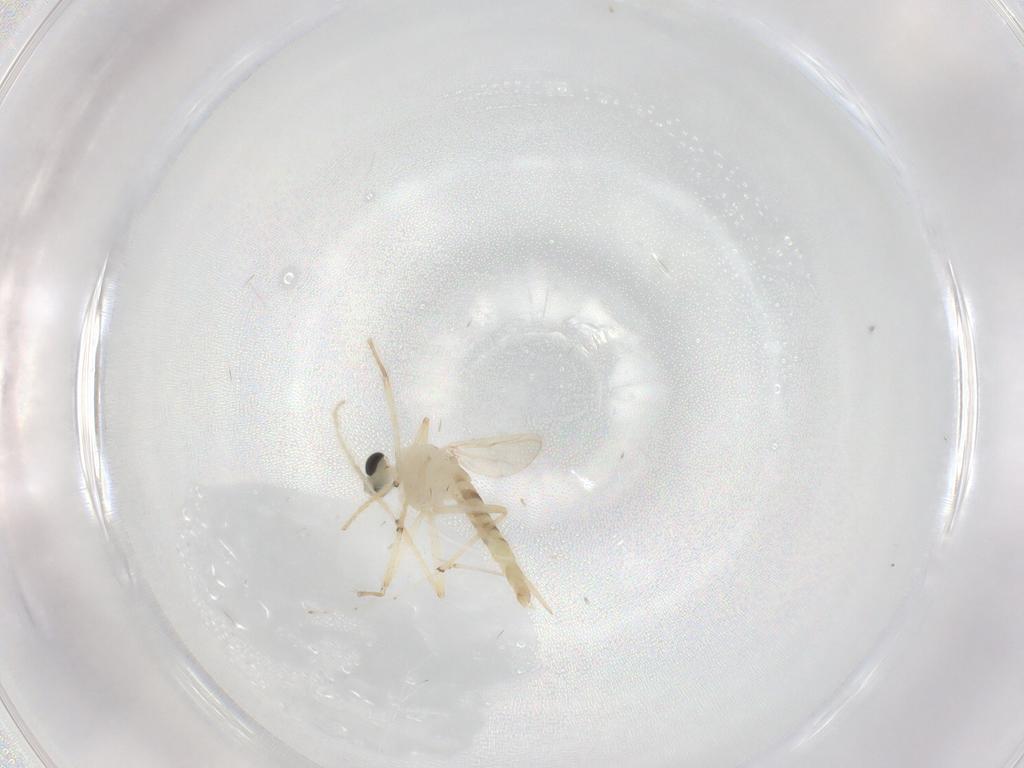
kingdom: Animalia
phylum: Arthropoda
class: Insecta
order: Diptera
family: Chironomidae
